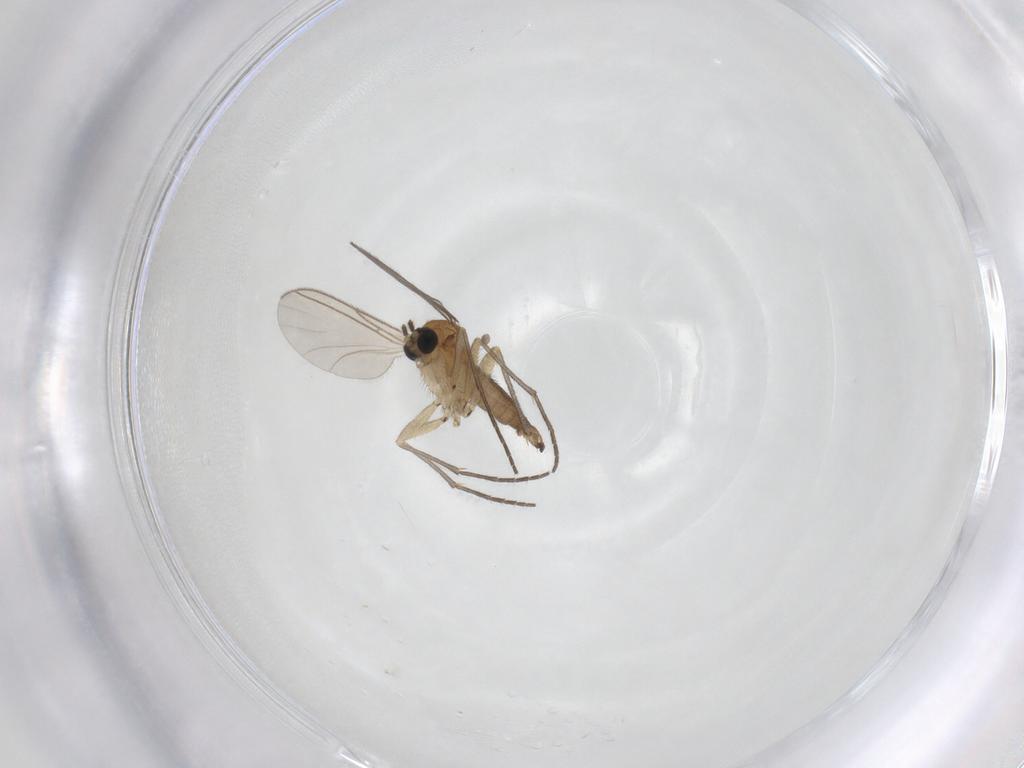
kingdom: Animalia
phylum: Arthropoda
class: Insecta
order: Diptera
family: Sciaridae
